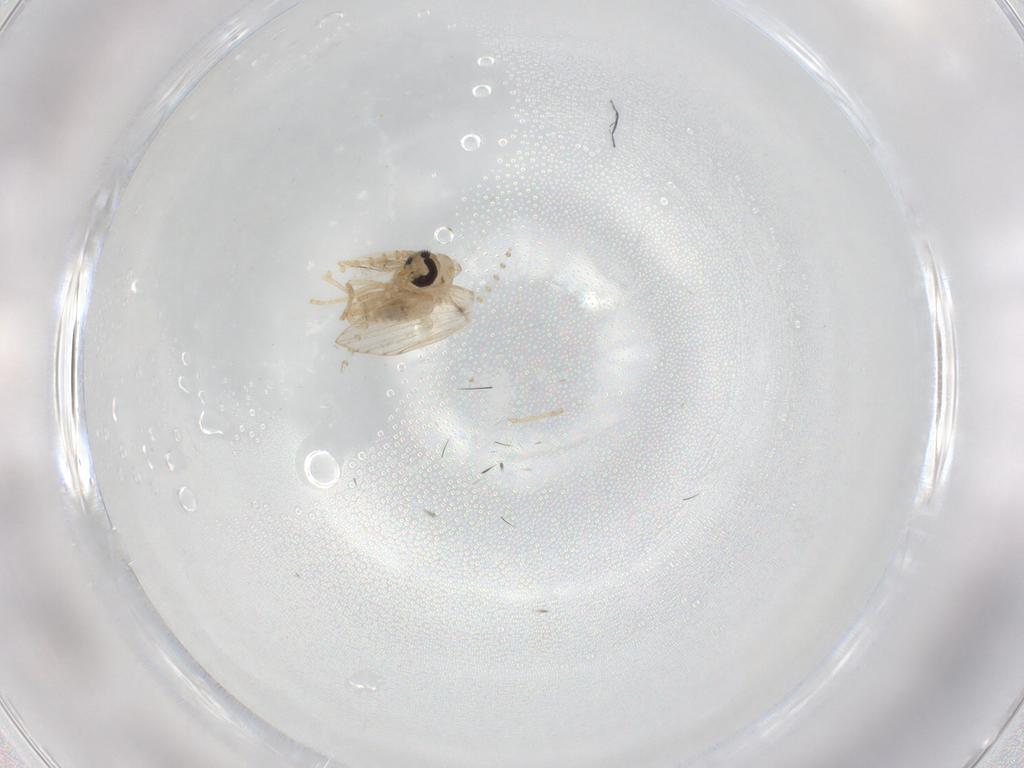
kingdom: Animalia
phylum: Arthropoda
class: Insecta
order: Diptera
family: Psychodidae
